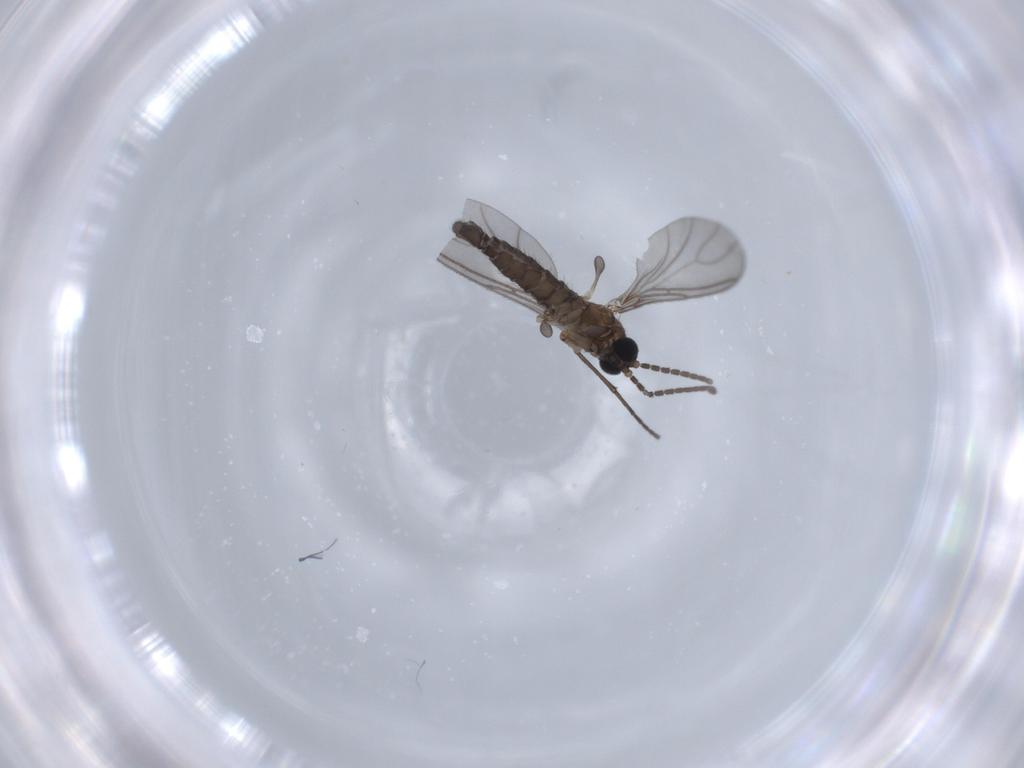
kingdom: Animalia
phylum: Arthropoda
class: Insecta
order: Diptera
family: Sciaridae
